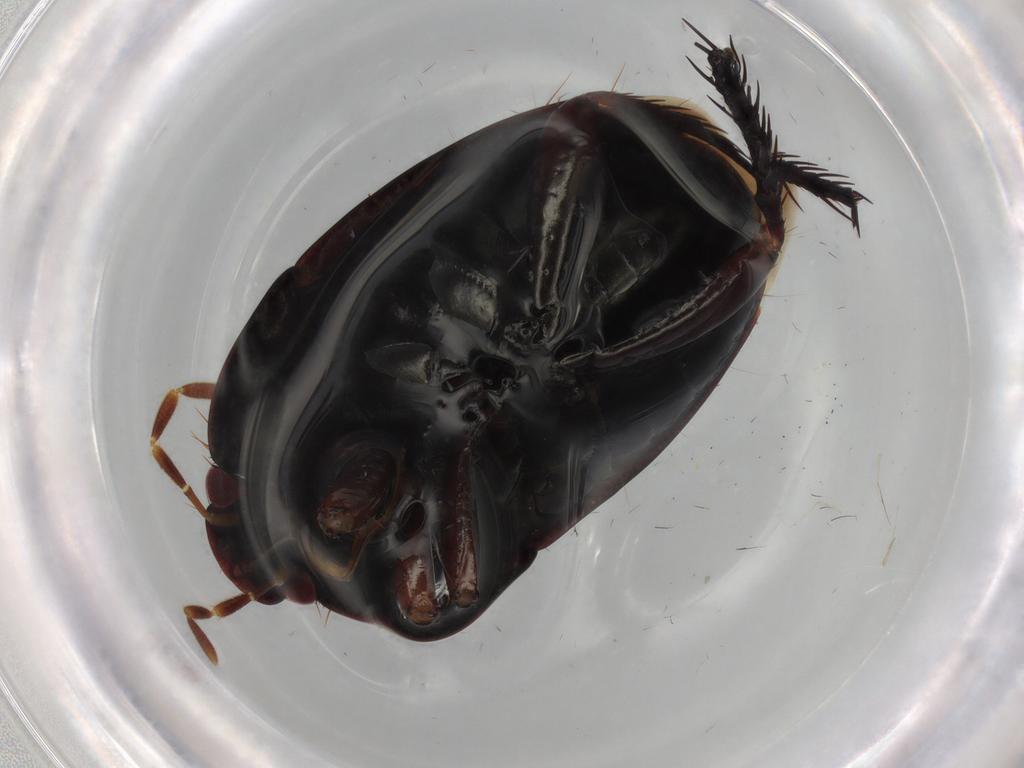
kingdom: Animalia
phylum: Arthropoda
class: Insecta
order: Hemiptera
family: Cydnidae
